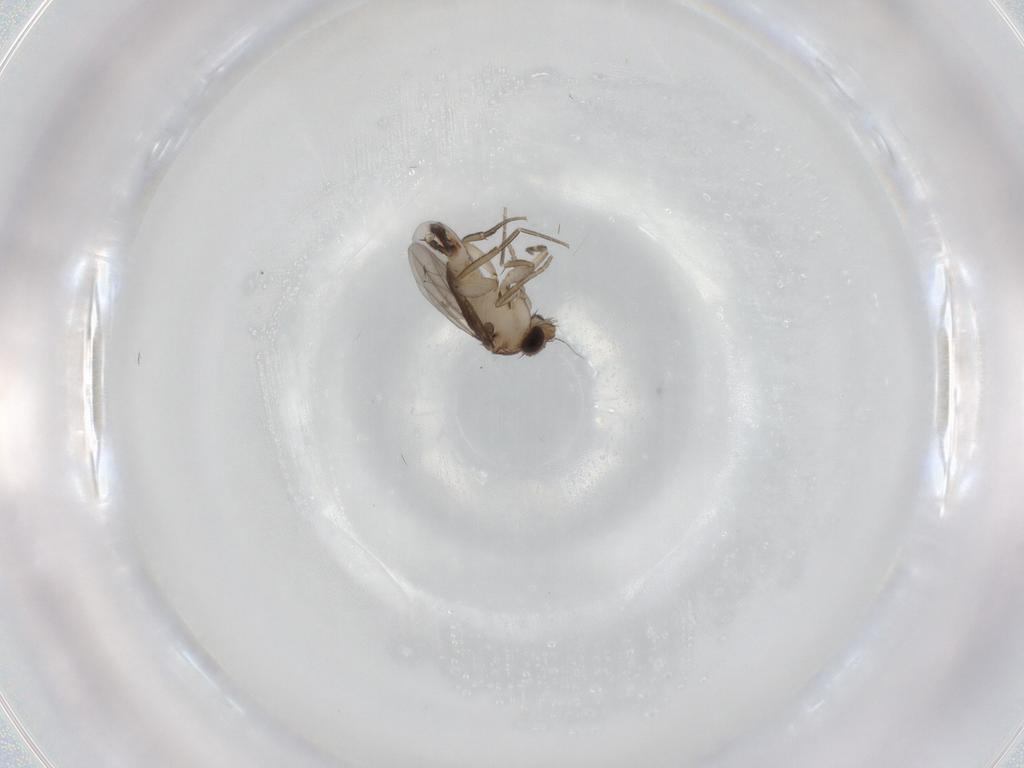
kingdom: Animalia
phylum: Arthropoda
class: Insecta
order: Diptera
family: Phoridae
